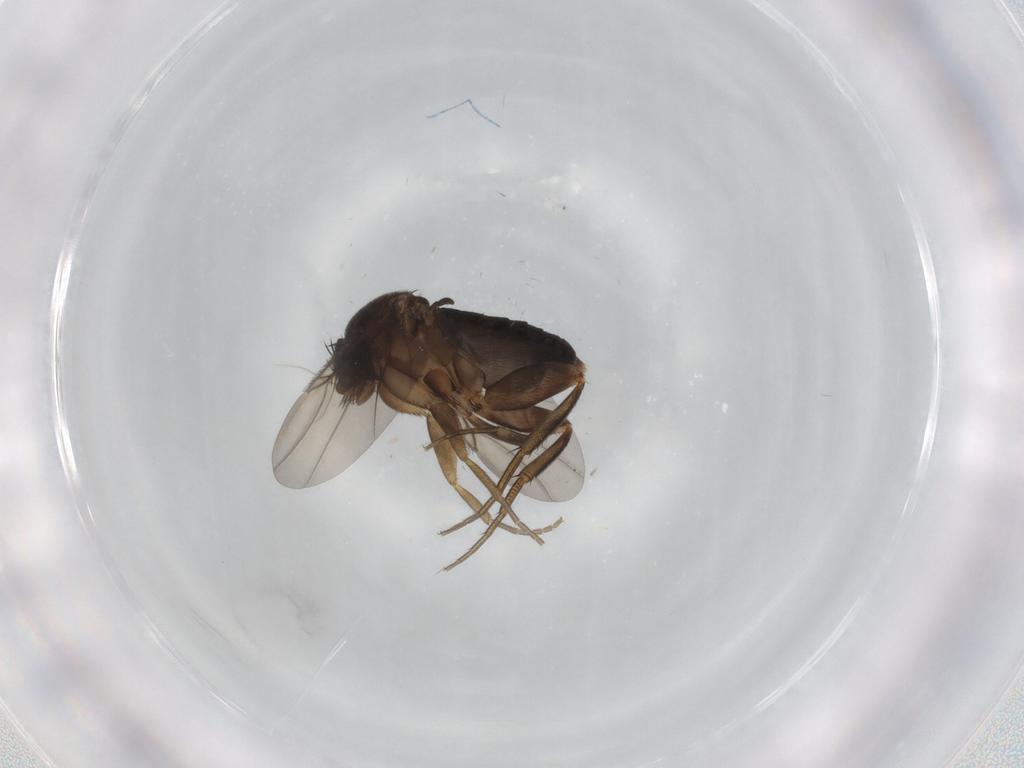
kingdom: Animalia
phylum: Arthropoda
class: Insecta
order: Diptera
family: Phoridae
